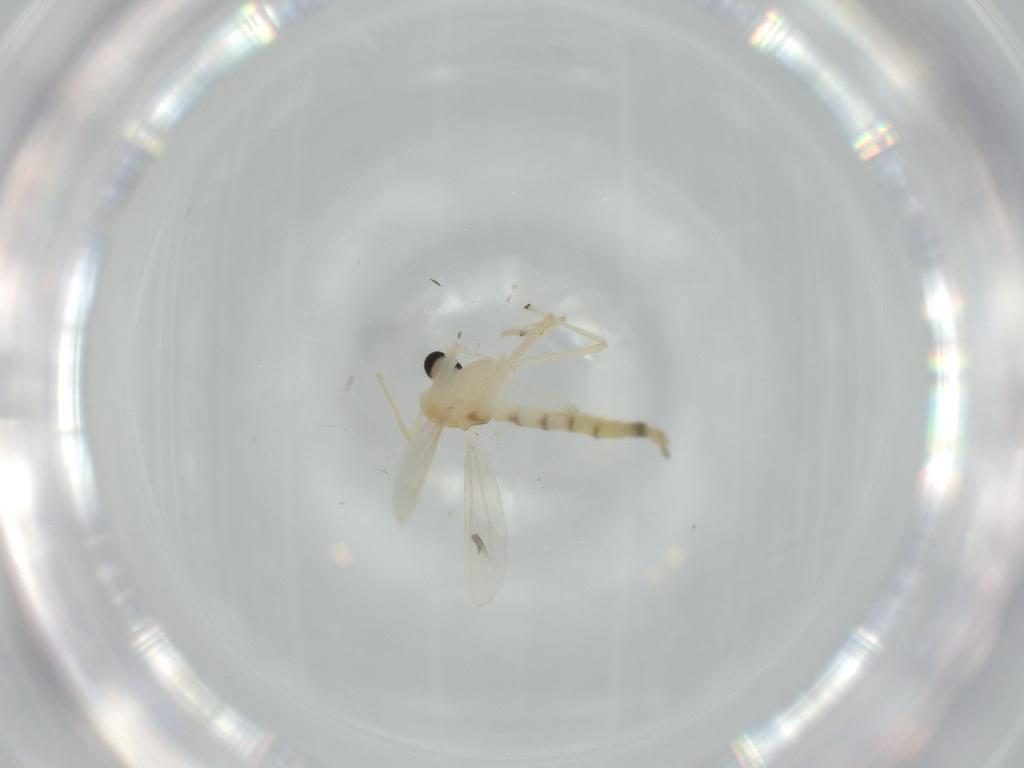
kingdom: Animalia
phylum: Arthropoda
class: Insecta
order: Diptera
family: Chironomidae
